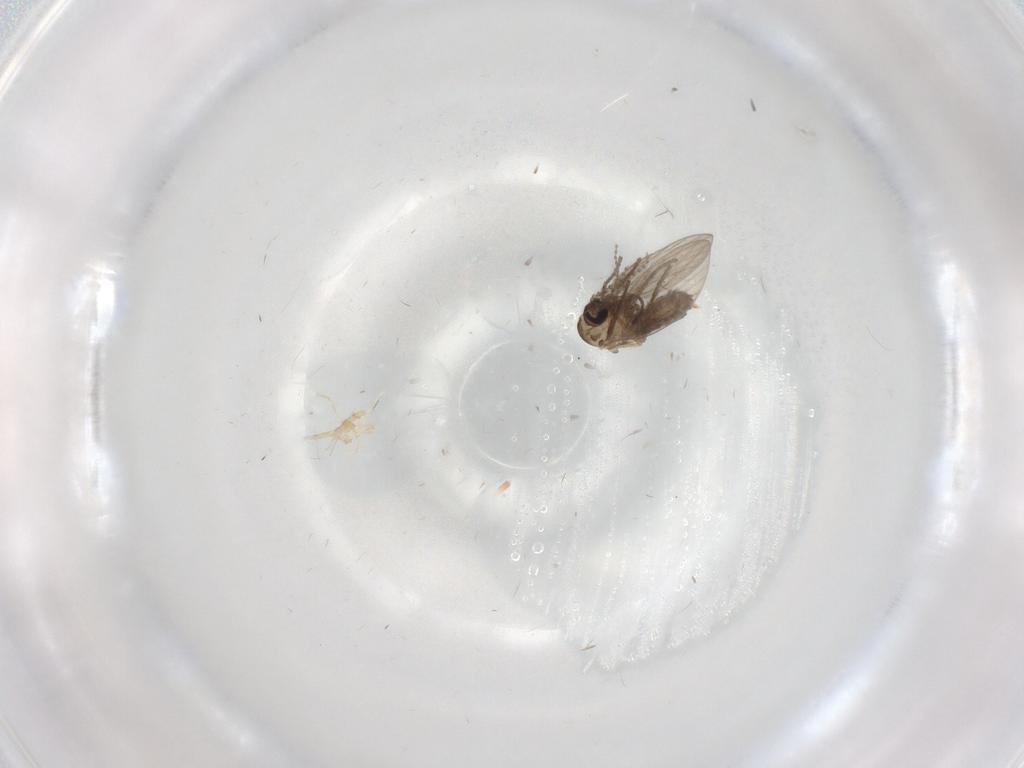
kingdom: Animalia
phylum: Arthropoda
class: Insecta
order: Diptera
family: Psychodidae
